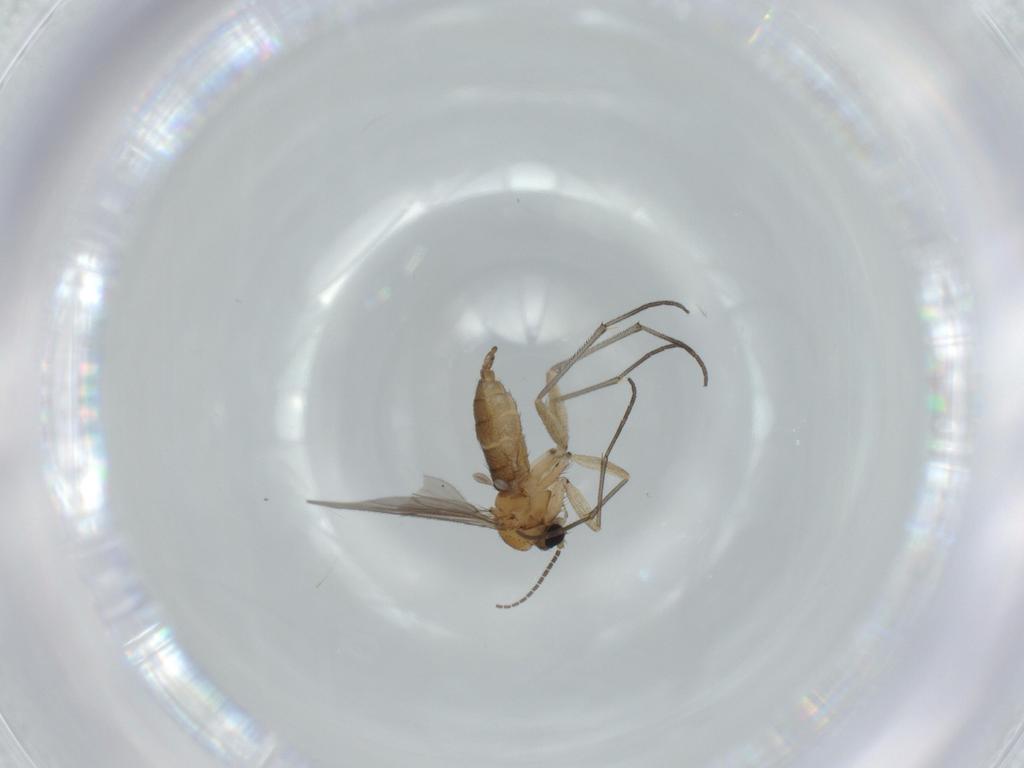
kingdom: Animalia
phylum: Arthropoda
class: Insecta
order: Diptera
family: Sciaridae
